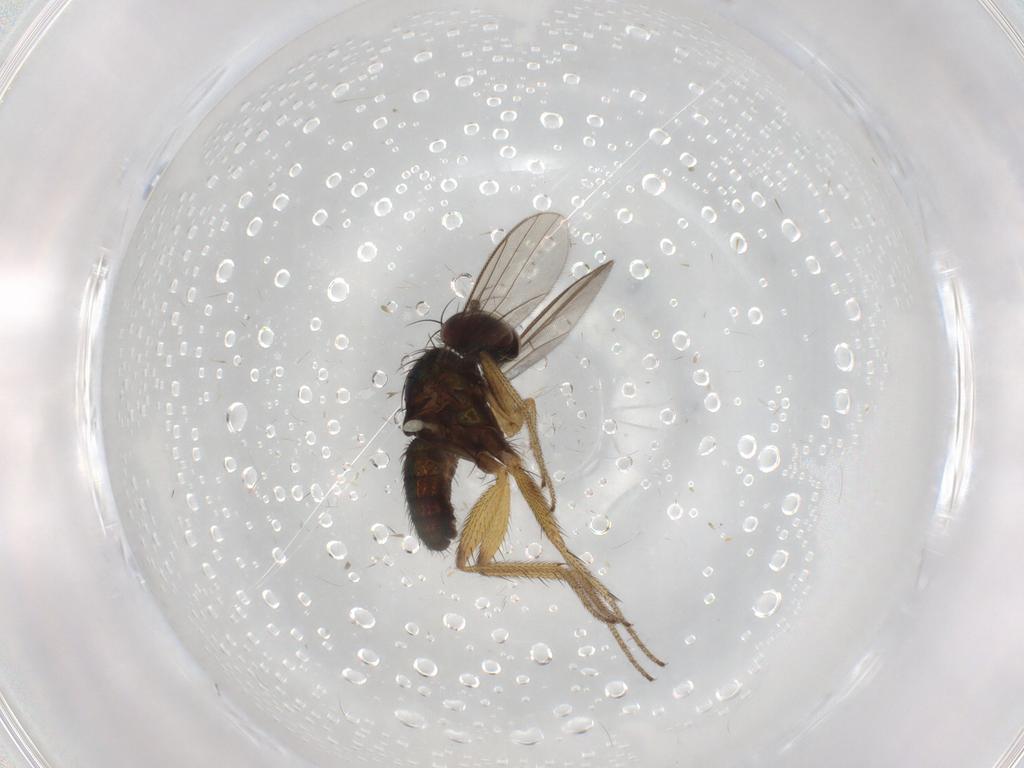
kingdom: Animalia
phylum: Arthropoda
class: Insecta
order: Diptera
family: Dolichopodidae
